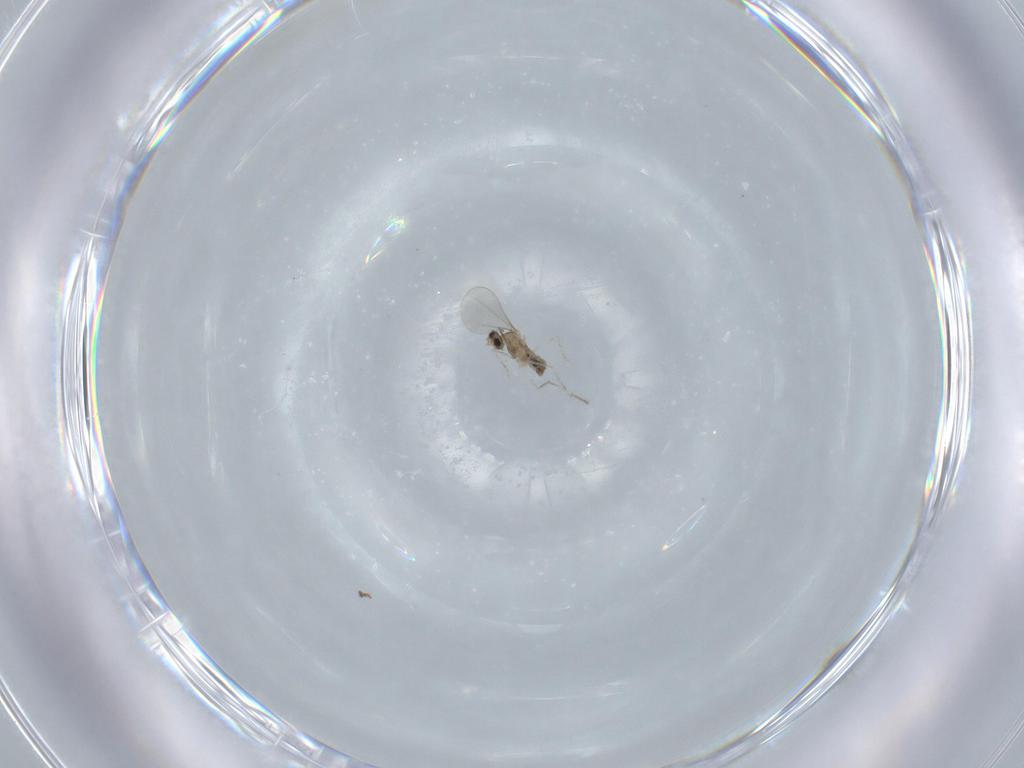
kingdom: Animalia
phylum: Arthropoda
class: Insecta
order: Diptera
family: Cecidomyiidae
